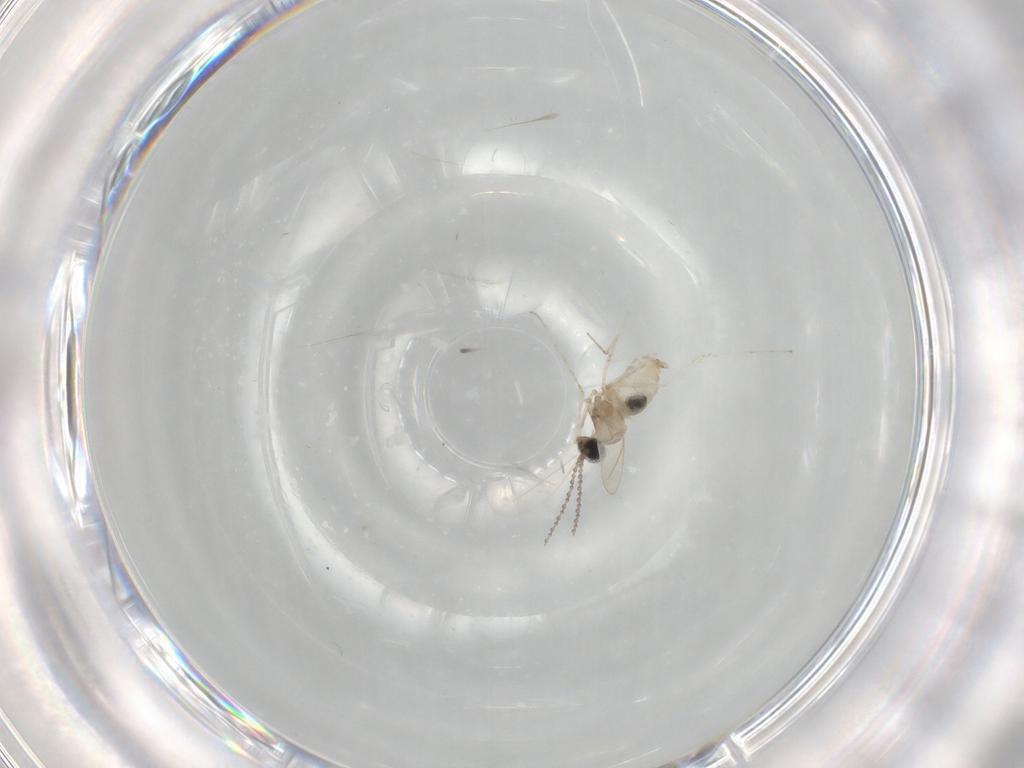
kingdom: Animalia
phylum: Arthropoda
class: Insecta
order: Diptera
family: Cecidomyiidae
